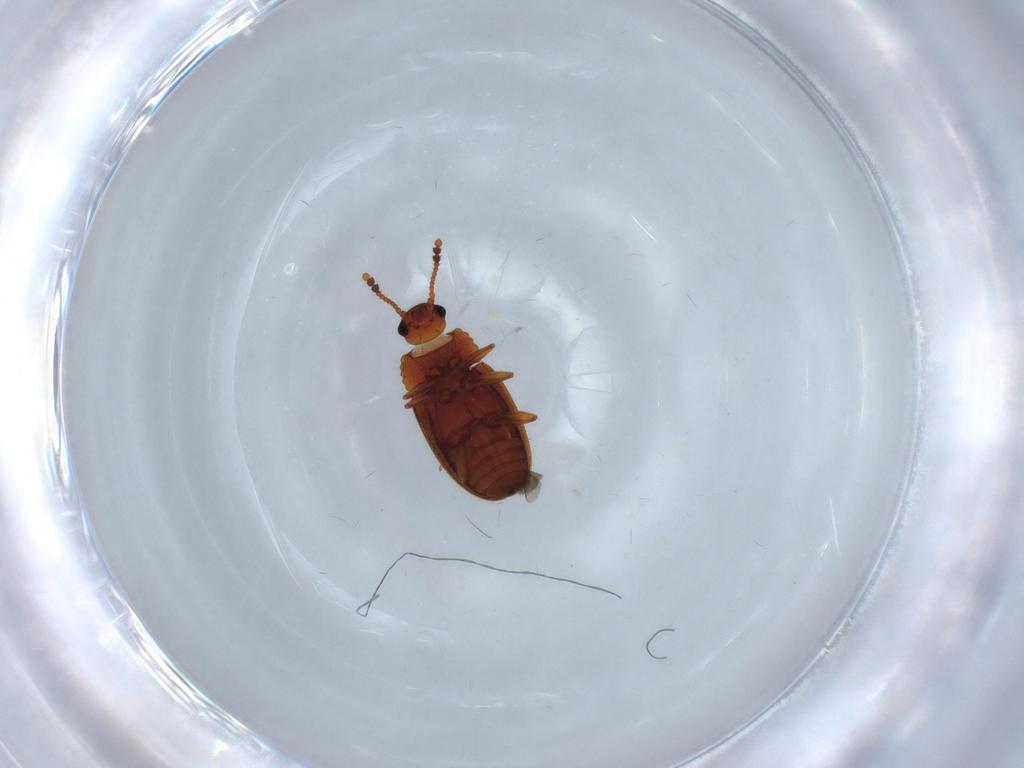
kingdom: Animalia
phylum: Arthropoda
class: Insecta
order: Coleoptera
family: Erotylidae
